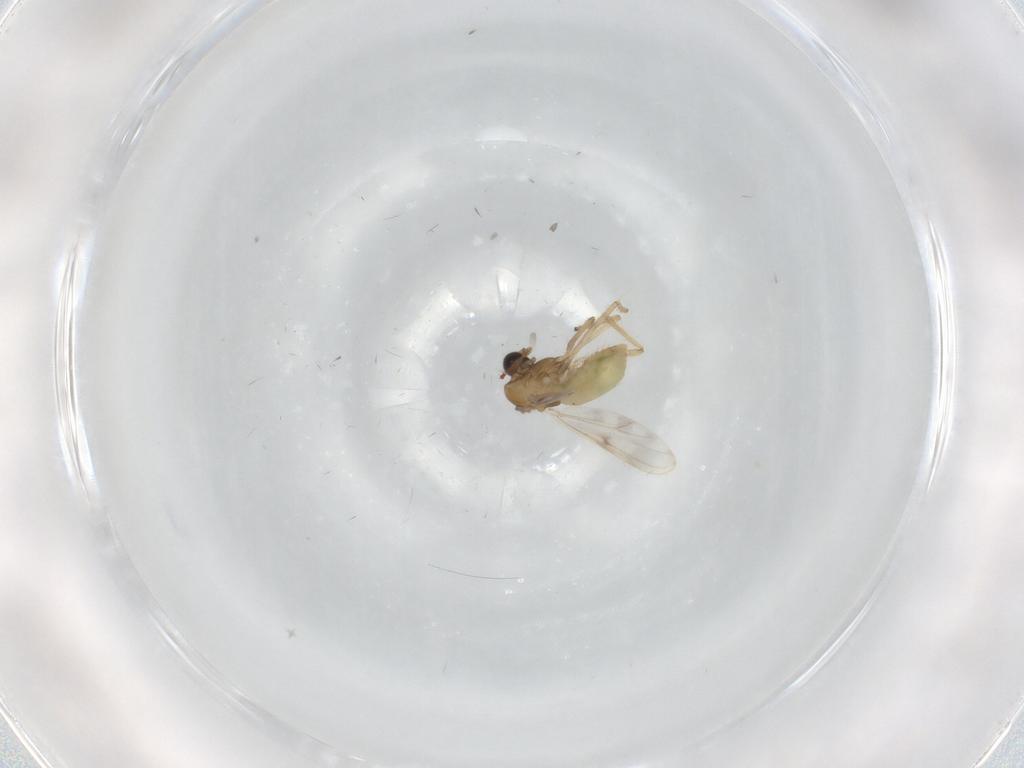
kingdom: Animalia
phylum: Arthropoda
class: Insecta
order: Diptera
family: Chironomidae
